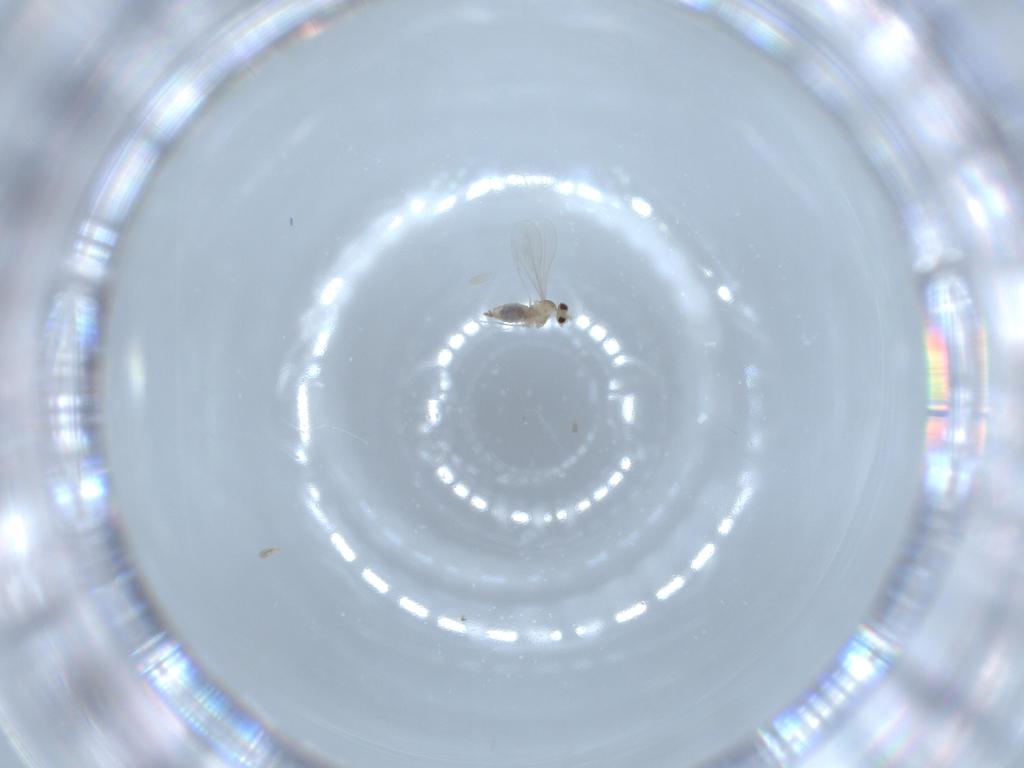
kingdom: Animalia
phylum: Arthropoda
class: Insecta
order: Diptera
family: Cecidomyiidae
